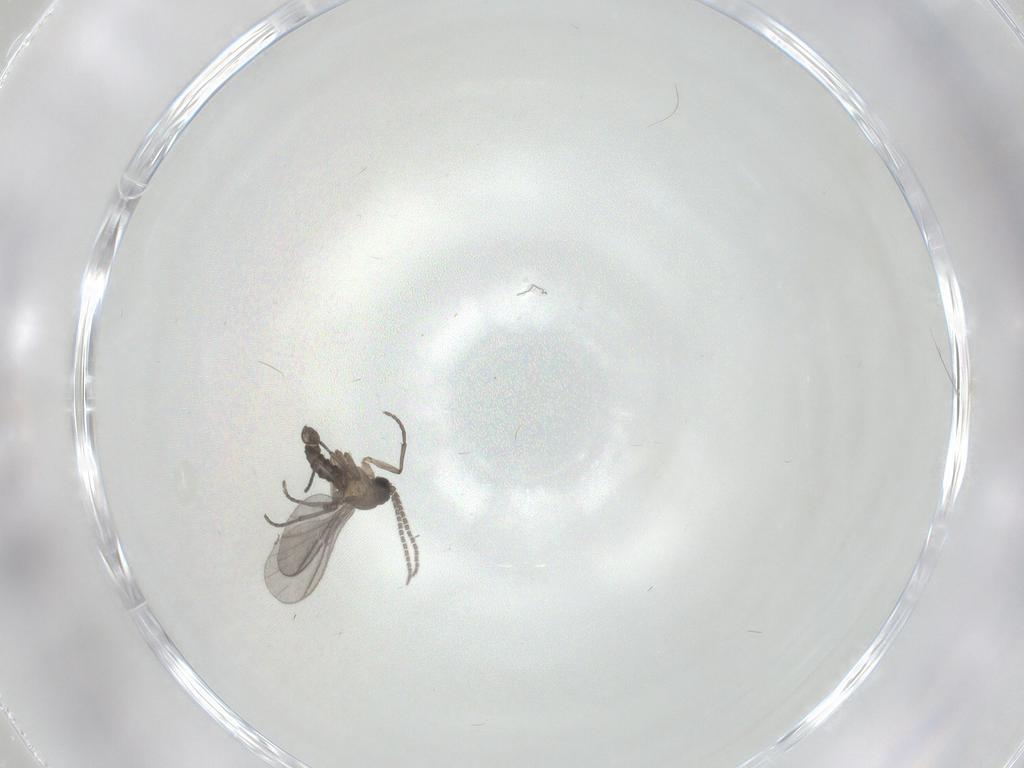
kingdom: Animalia
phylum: Arthropoda
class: Insecta
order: Diptera
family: Sciaridae
